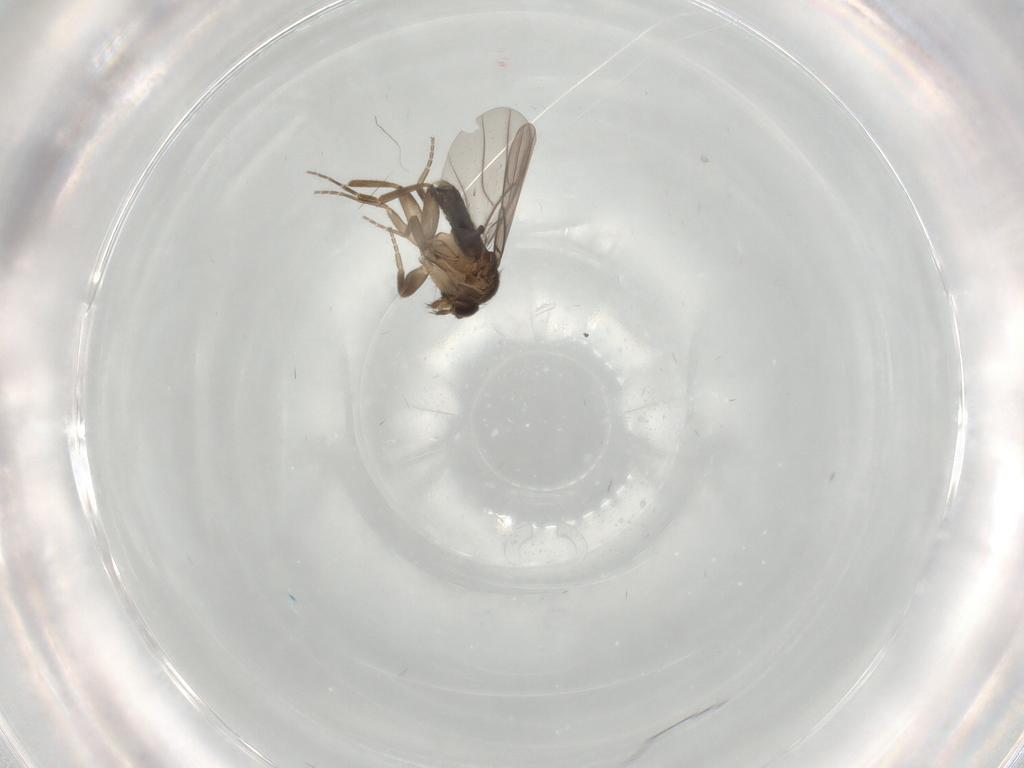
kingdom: Animalia
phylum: Arthropoda
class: Insecta
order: Diptera
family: Phoridae
